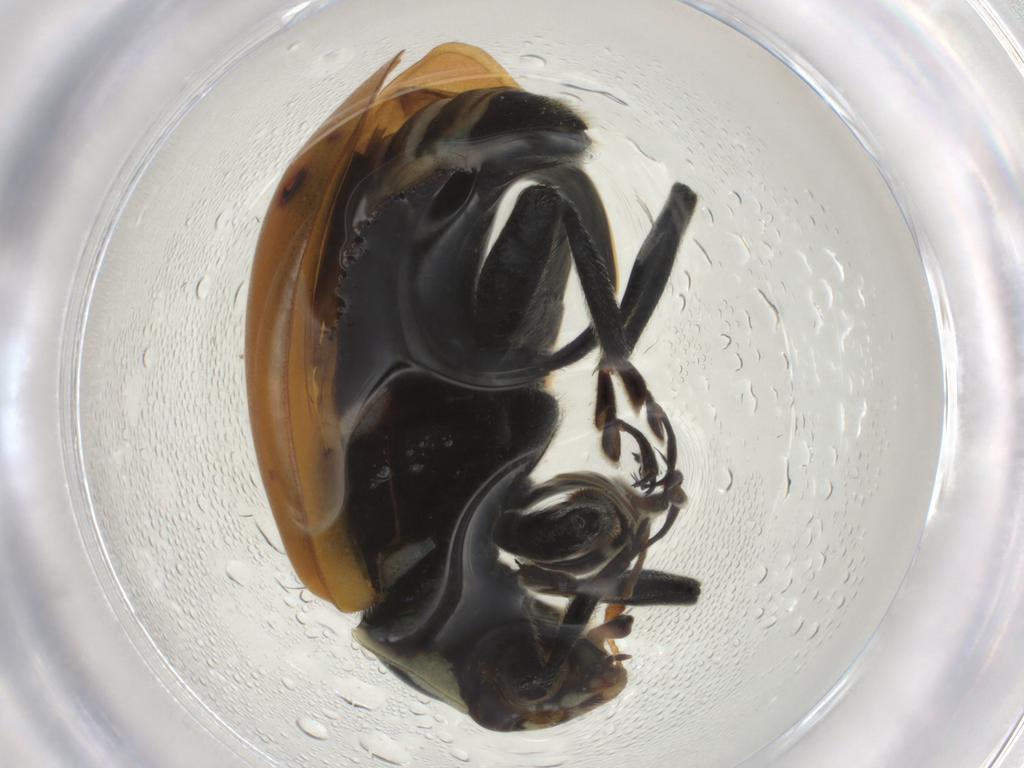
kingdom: Animalia
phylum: Arthropoda
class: Insecta
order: Coleoptera
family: Coccinellidae
